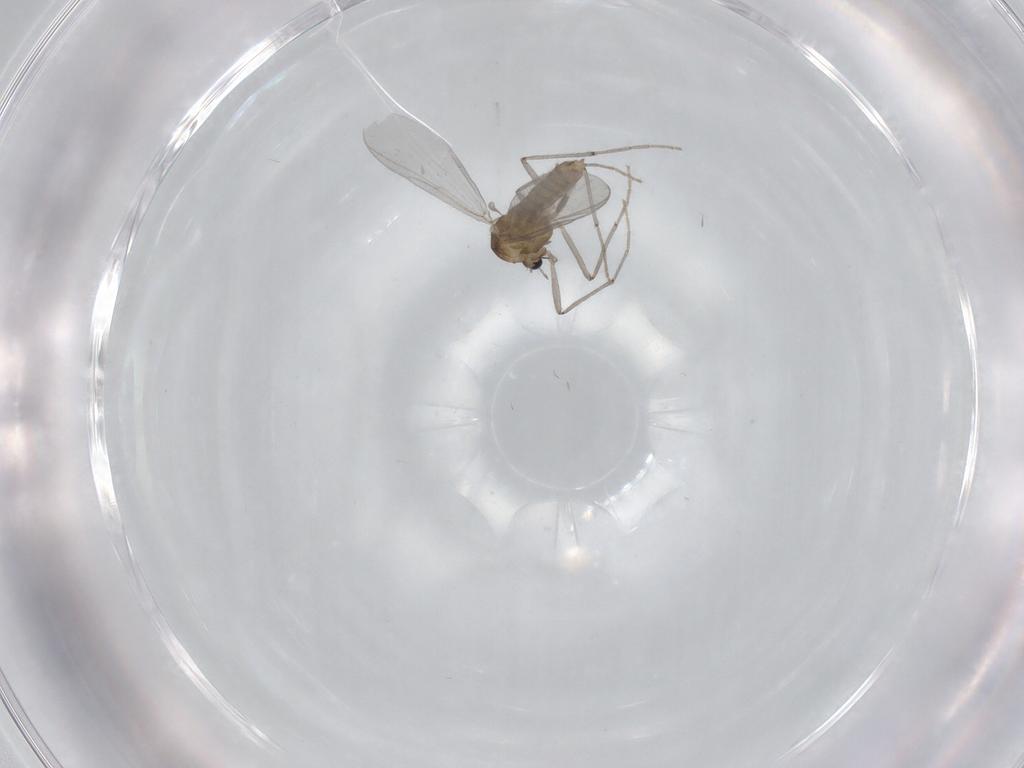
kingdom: Animalia
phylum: Arthropoda
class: Insecta
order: Diptera
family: Chironomidae
